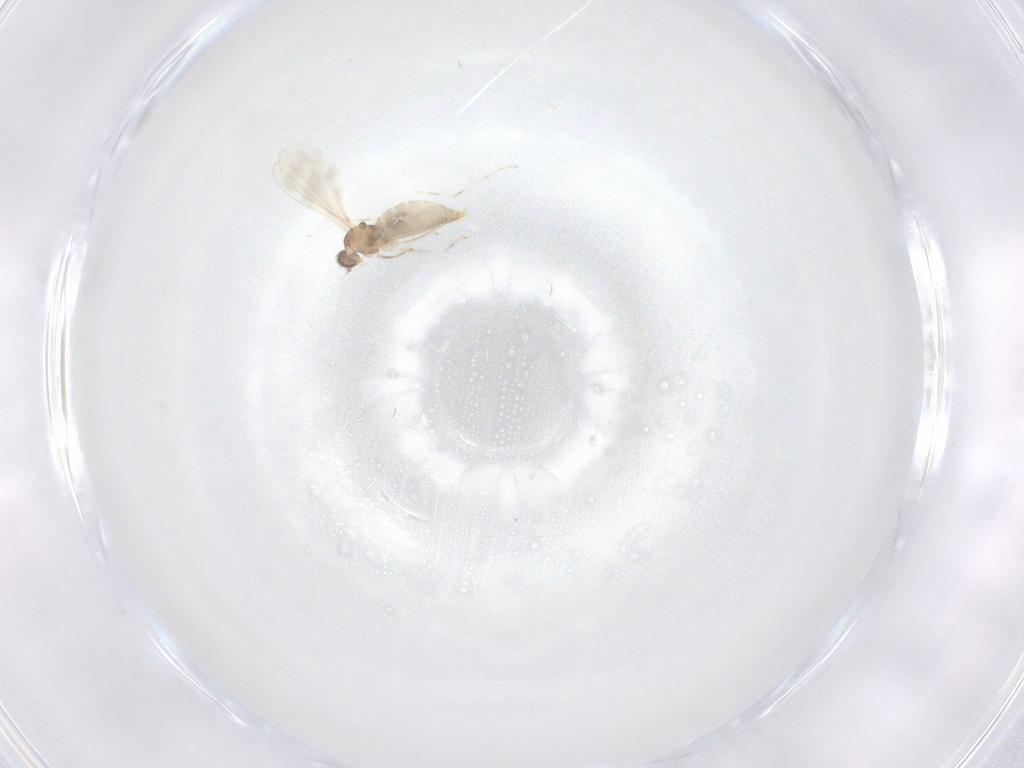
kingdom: Animalia
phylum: Arthropoda
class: Insecta
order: Diptera
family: Cecidomyiidae
